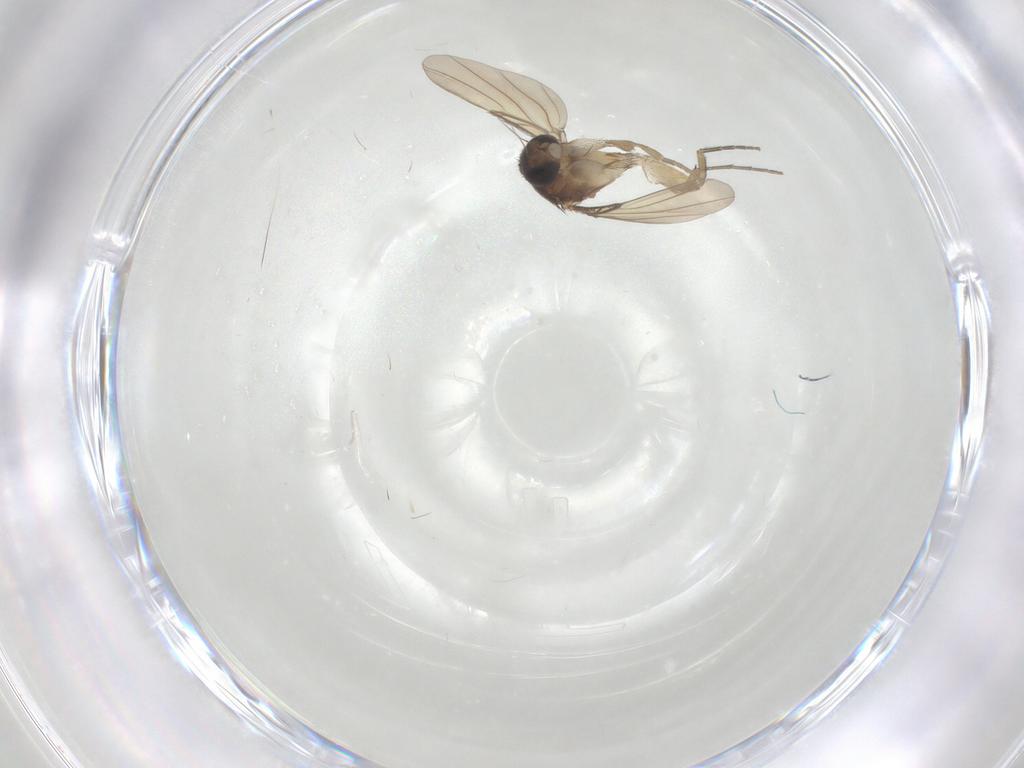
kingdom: Animalia
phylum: Arthropoda
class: Insecta
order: Diptera
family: Phoridae
